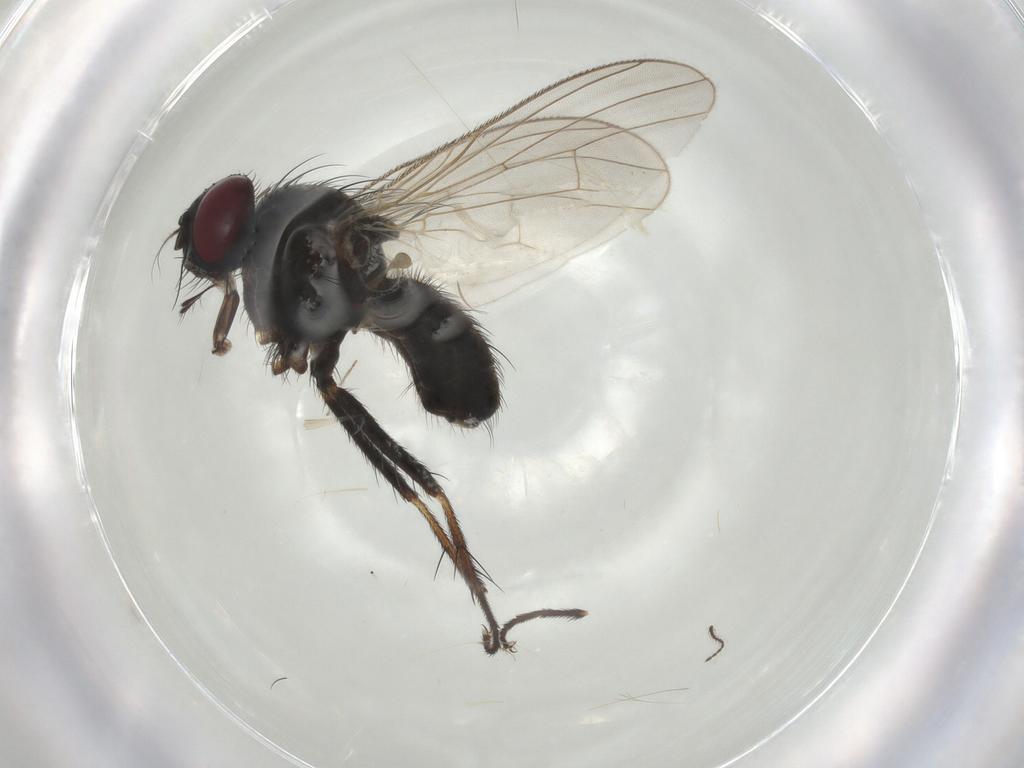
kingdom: Animalia
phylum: Arthropoda
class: Insecta
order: Diptera
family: Muscidae
